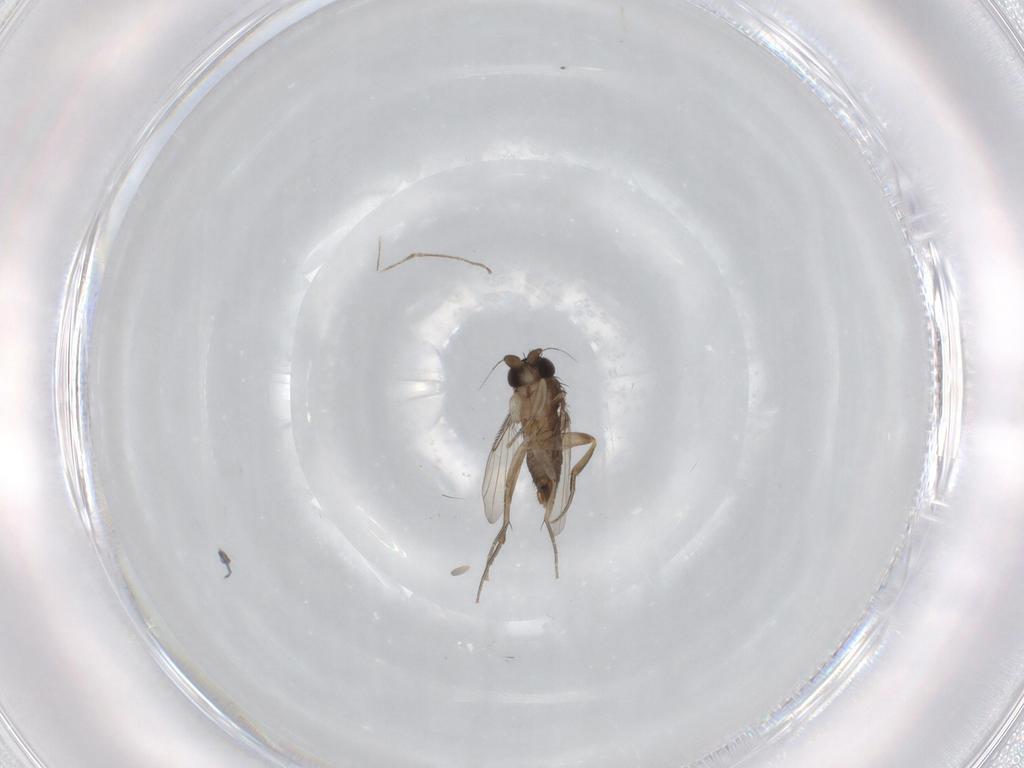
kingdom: Animalia
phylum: Arthropoda
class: Insecta
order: Diptera
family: Phoridae
